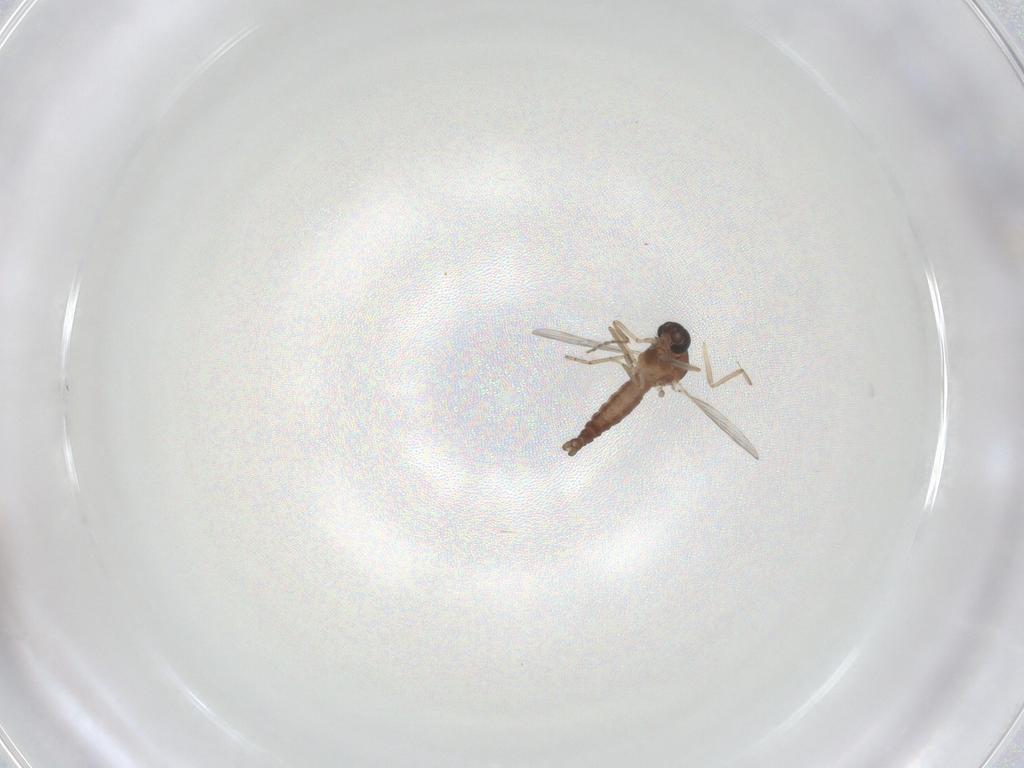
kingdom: Animalia
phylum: Arthropoda
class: Insecta
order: Diptera
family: Ceratopogonidae
